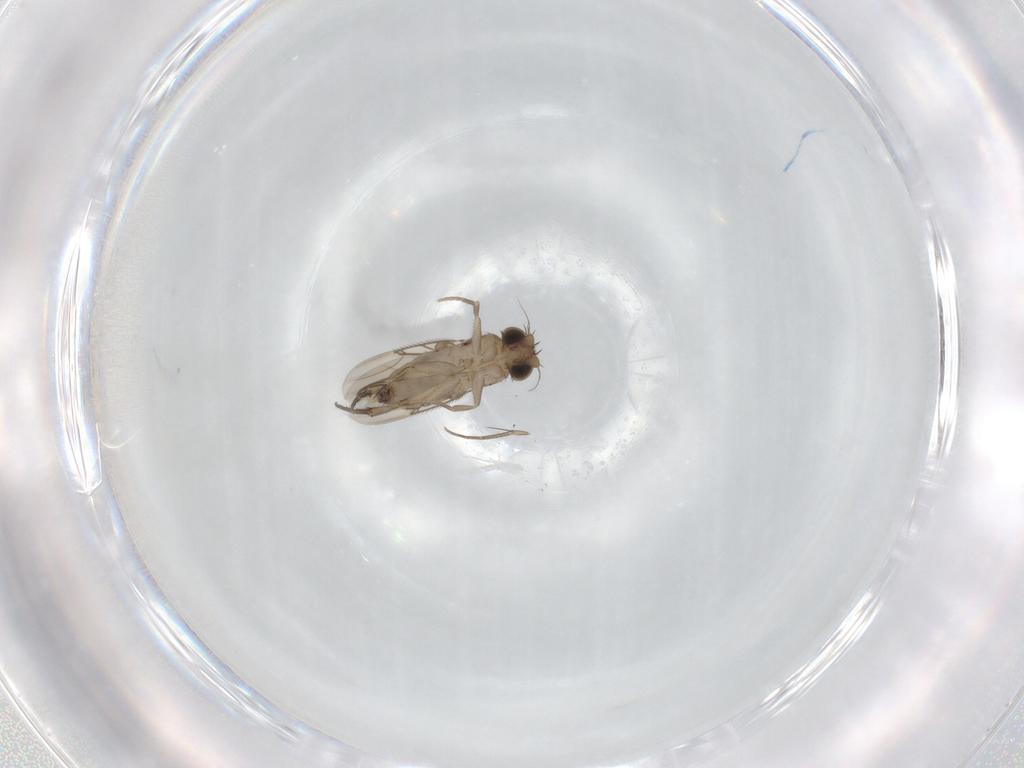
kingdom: Animalia
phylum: Arthropoda
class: Insecta
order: Diptera
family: Phoridae
